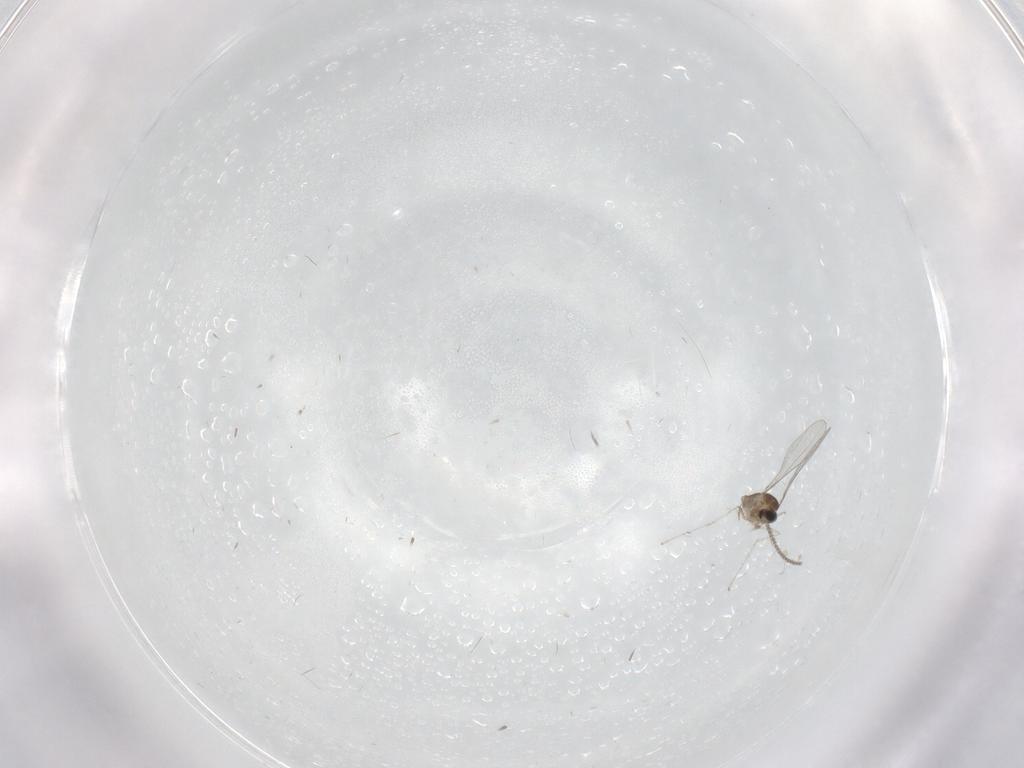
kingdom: Animalia
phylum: Arthropoda
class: Insecta
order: Diptera
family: Cecidomyiidae
